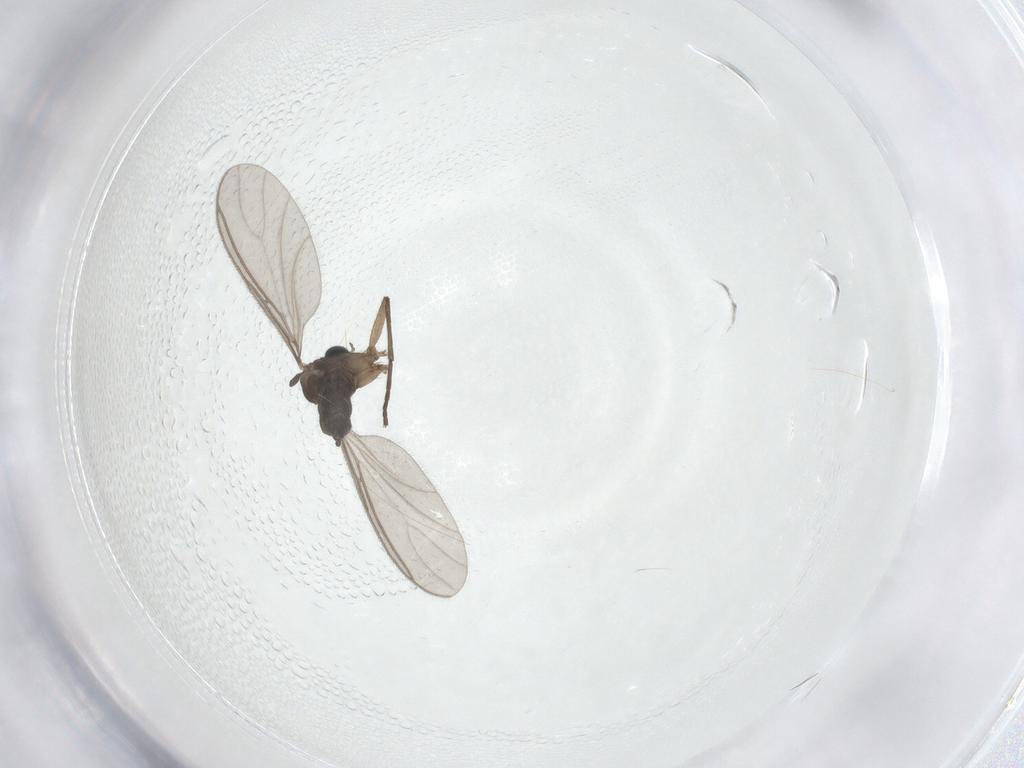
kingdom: Animalia
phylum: Arthropoda
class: Insecta
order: Diptera
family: Sciaridae
